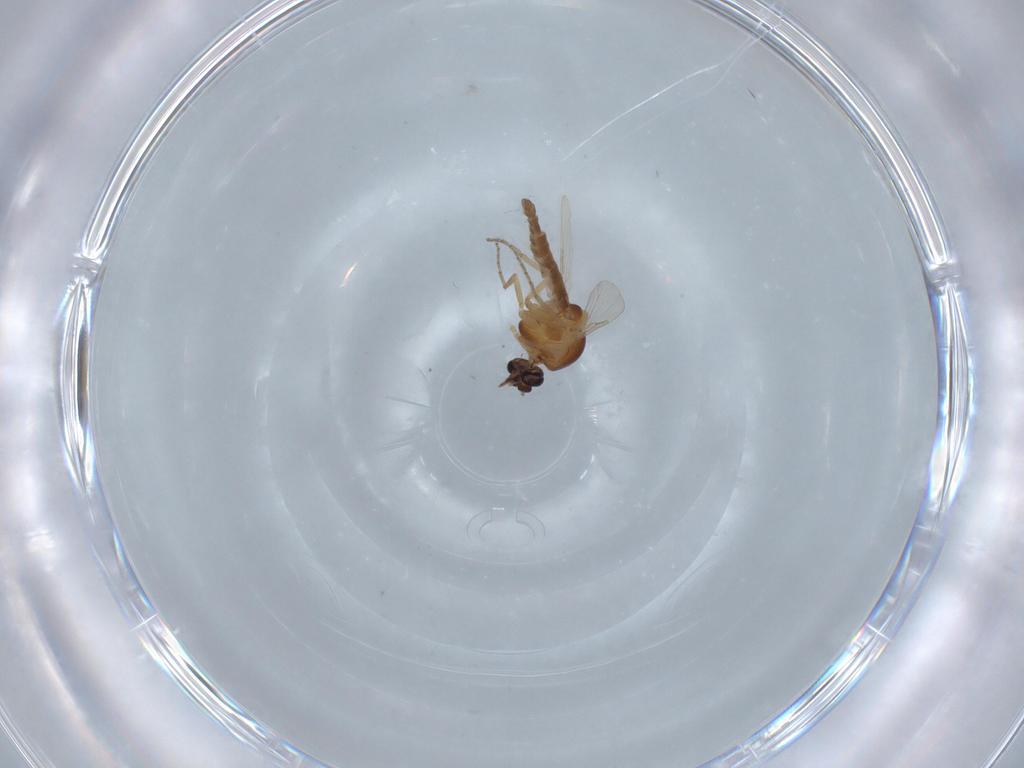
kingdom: Animalia
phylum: Arthropoda
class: Insecta
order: Diptera
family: Ceratopogonidae
